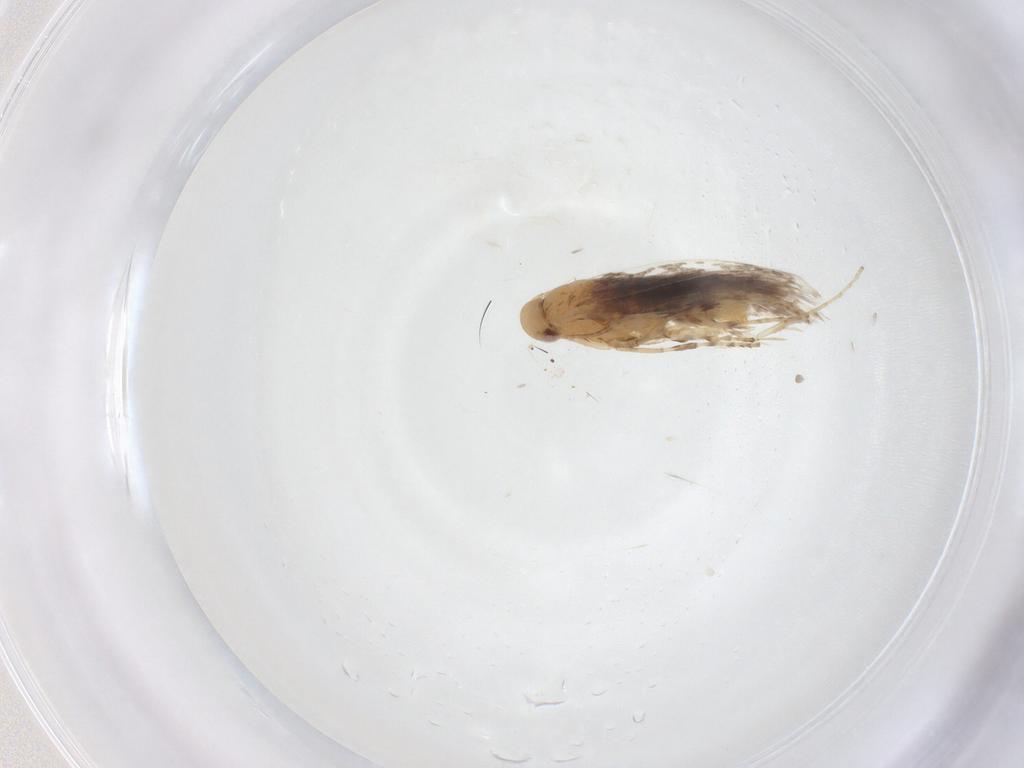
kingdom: Animalia
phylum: Arthropoda
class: Insecta
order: Lepidoptera
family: Gracillariidae
